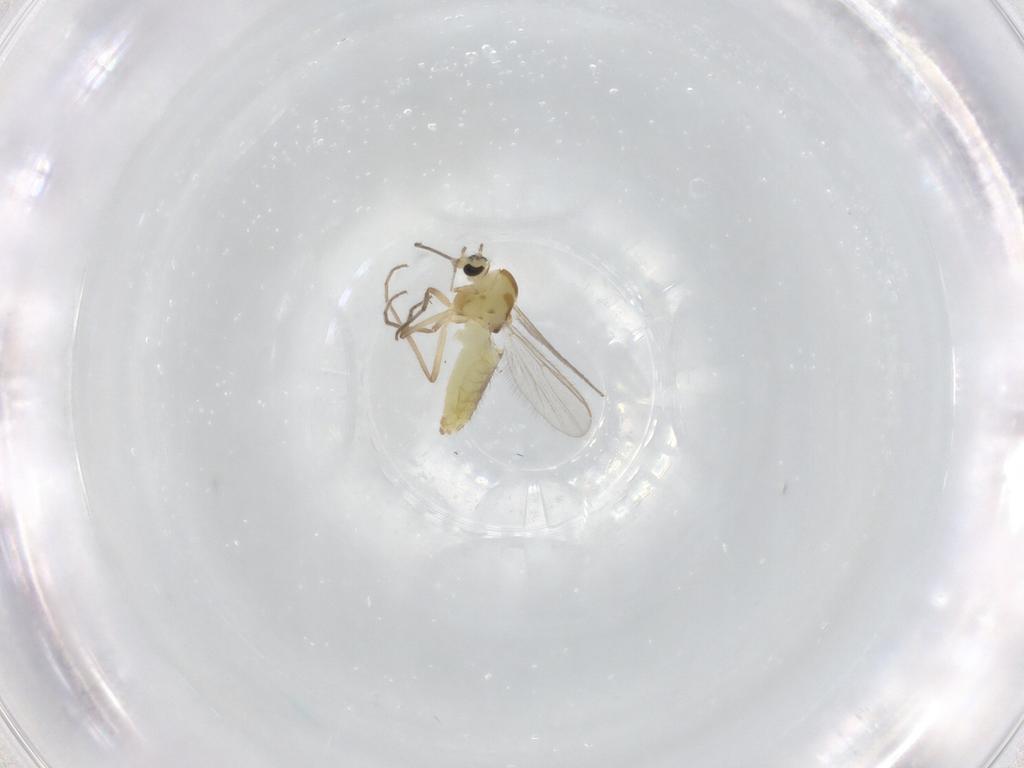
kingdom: Animalia
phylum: Arthropoda
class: Insecta
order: Diptera
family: Chironomidae
